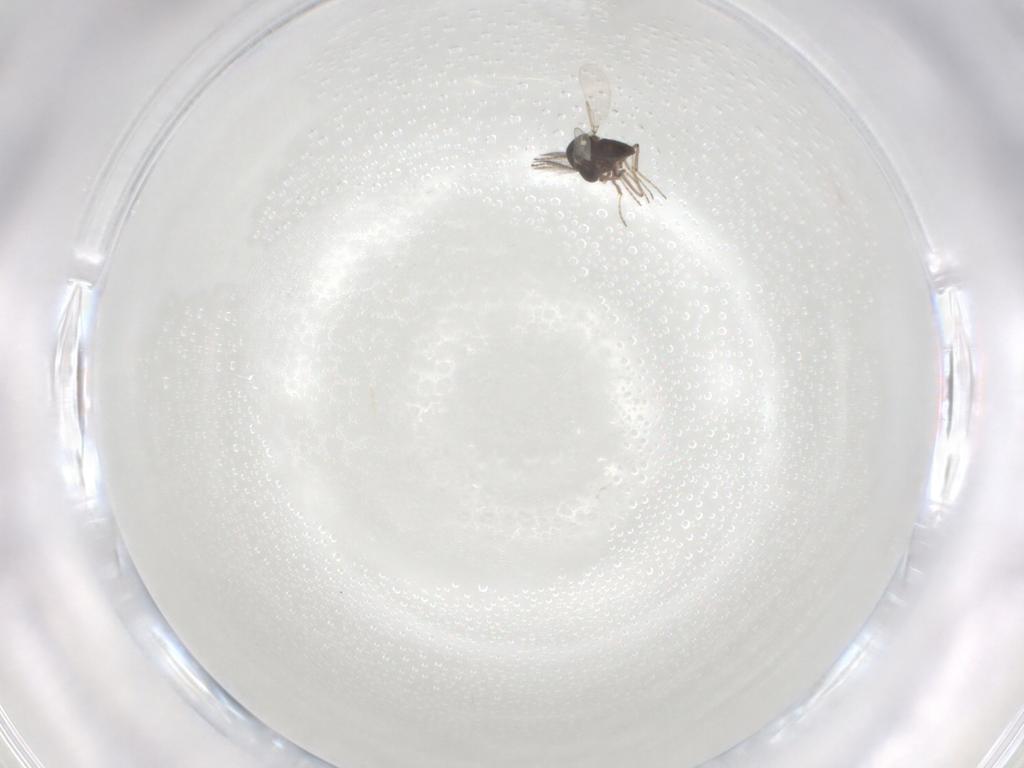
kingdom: Animalia
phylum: Arthropoda
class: Insecta
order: Diptera
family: Ceratopogonidae
